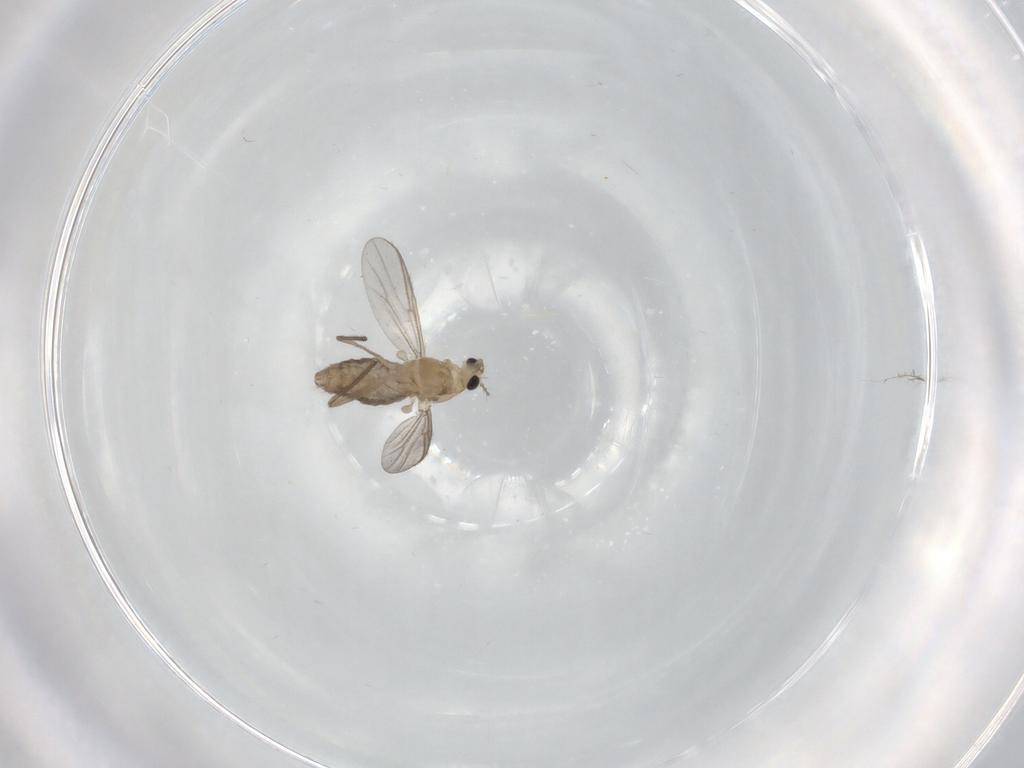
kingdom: Animalia
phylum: Arthropoda
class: Insecta
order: Diptera
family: Chironomidae
